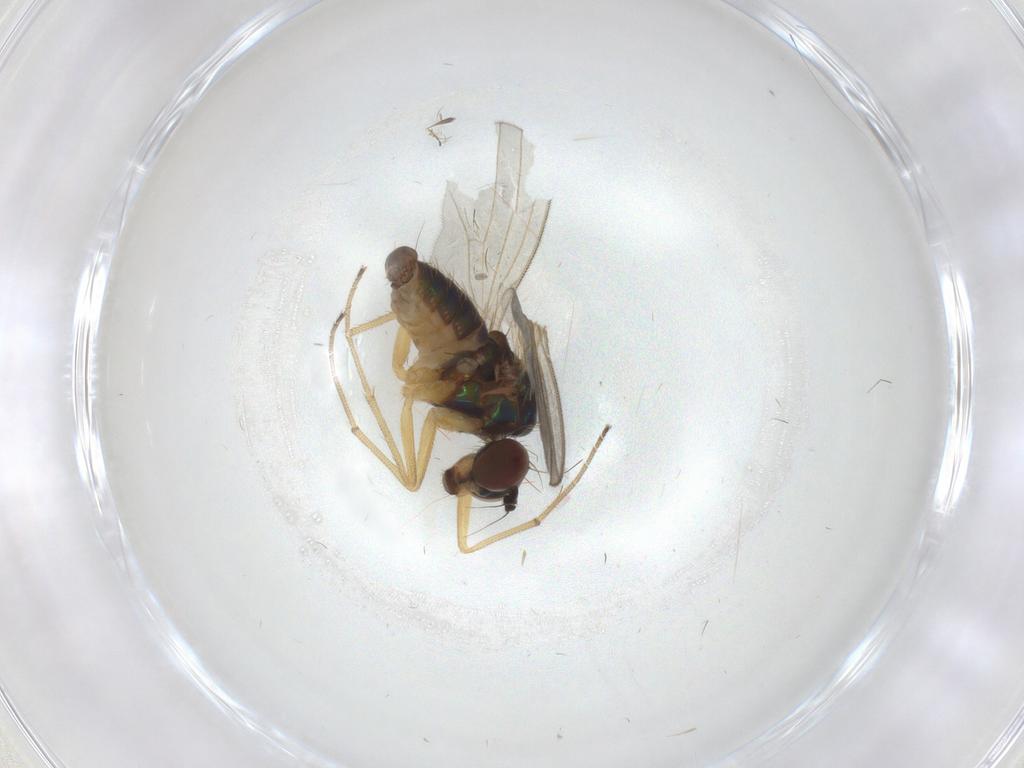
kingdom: Animalia
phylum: Arthropoda
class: Insecta
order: Diptera
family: Dolichopodidae
